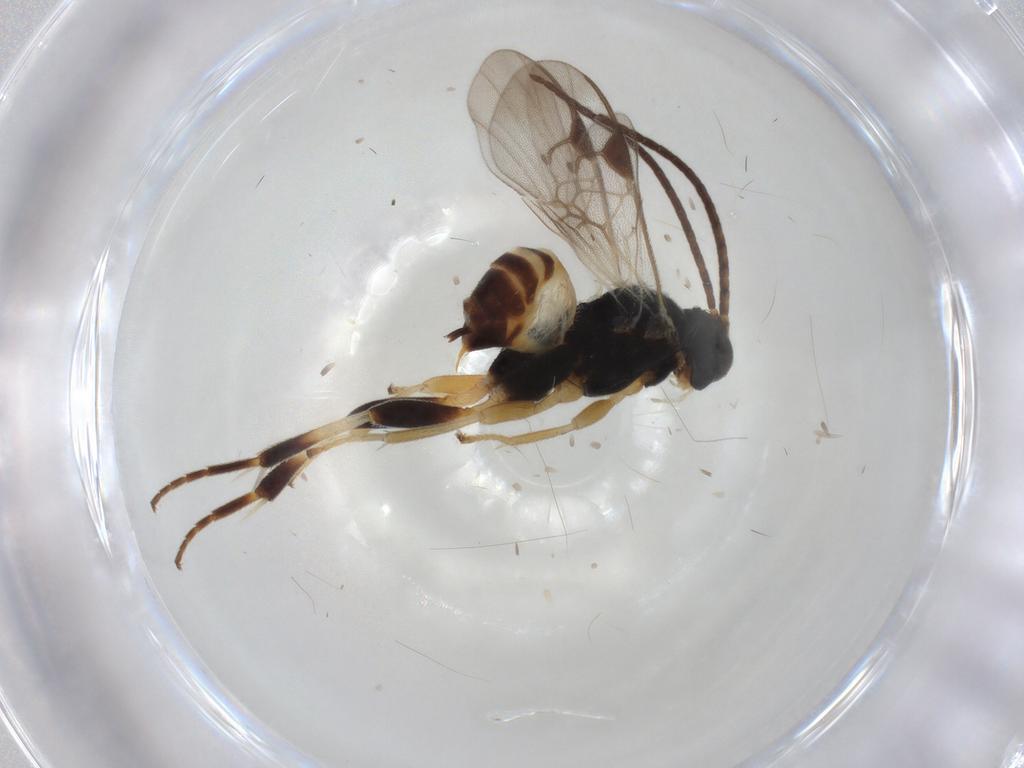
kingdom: Animalia
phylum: Arthropoda
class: Insecta
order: Hymenoptera
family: Braconidae
